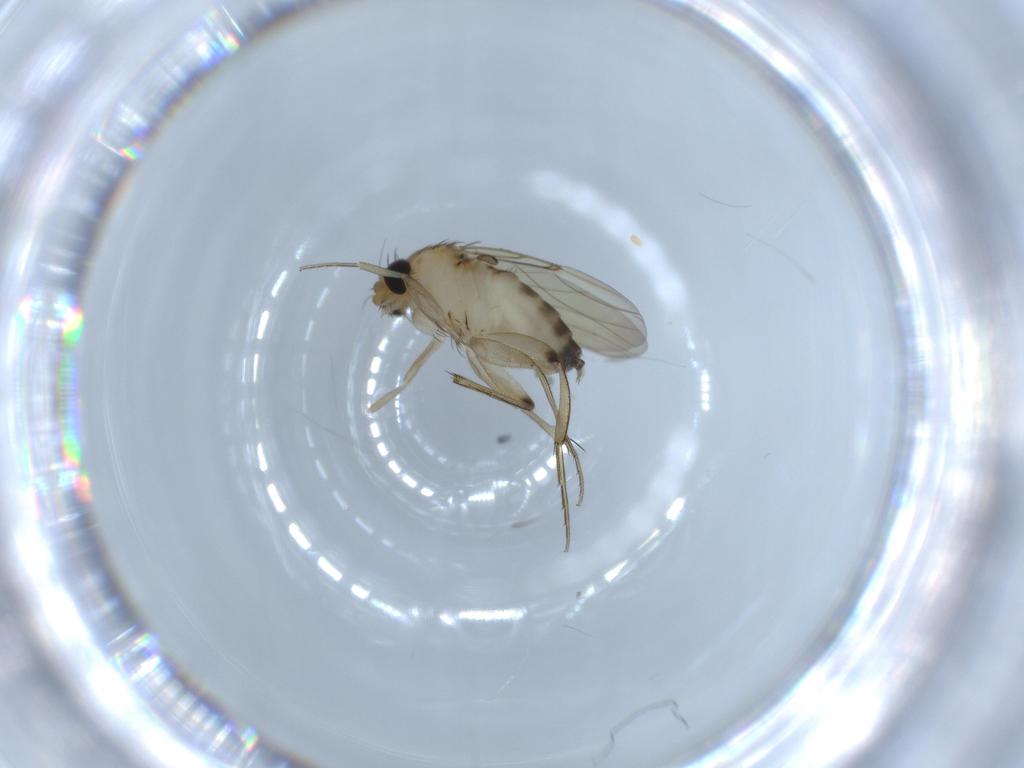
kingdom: Animalia
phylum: Arthropoda
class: Insecta
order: Diptera
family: Phoridae
